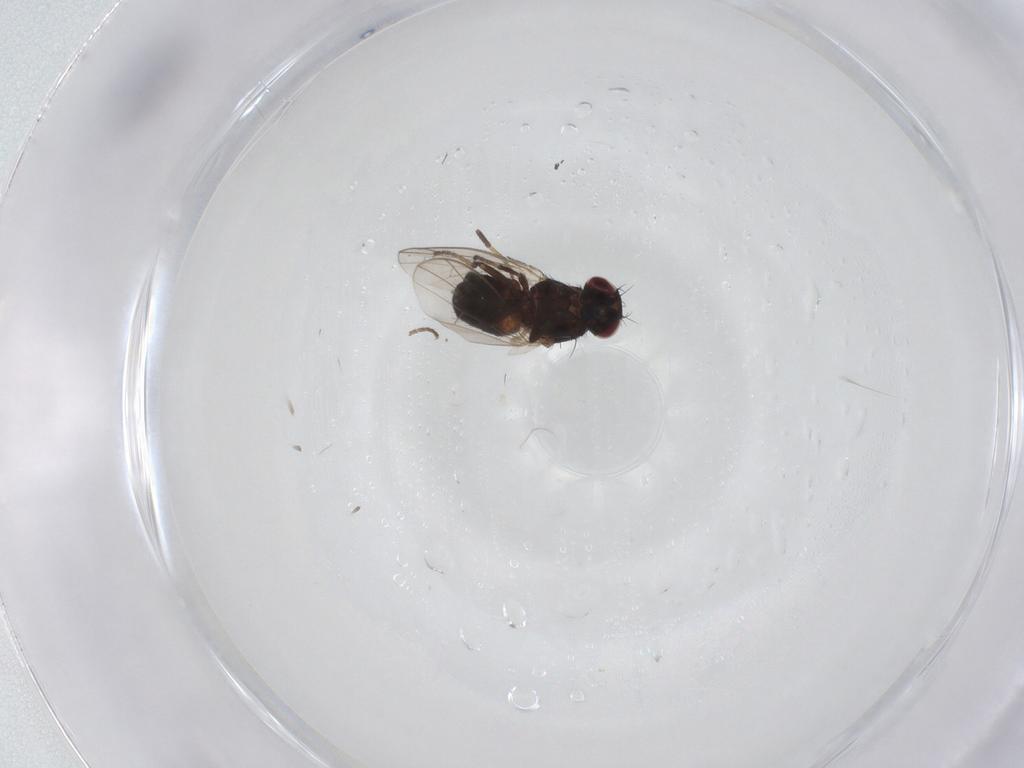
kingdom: Animalia
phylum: Arthropoda
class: Insecta
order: Diptera
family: Carnidae
